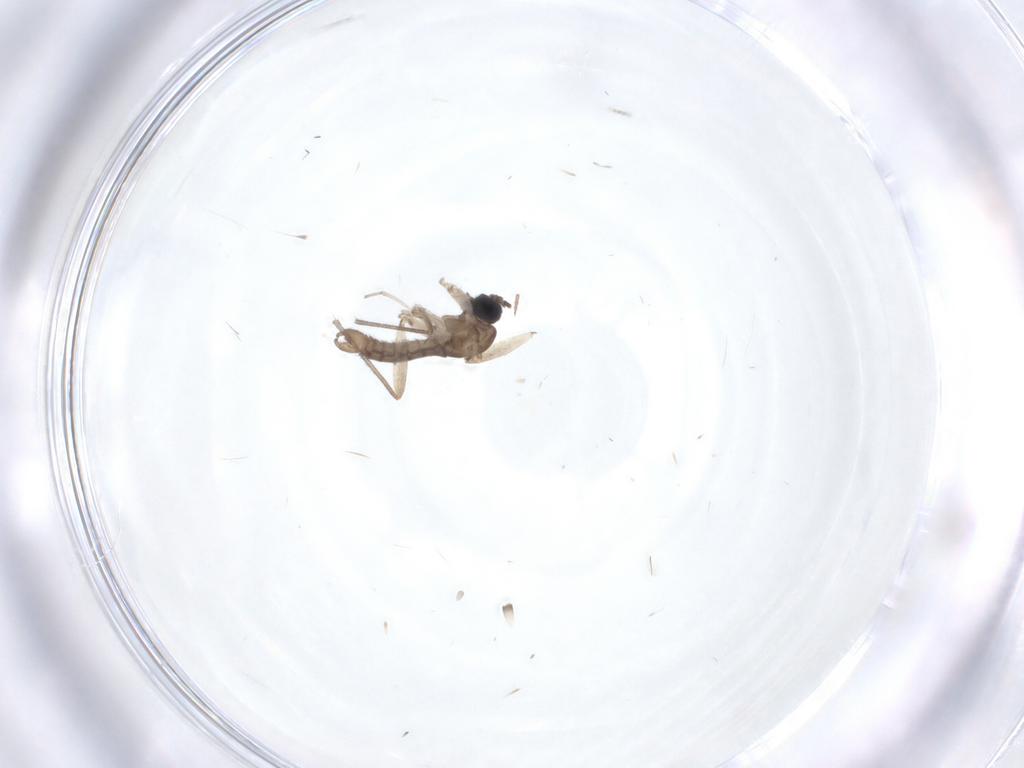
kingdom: Animalia
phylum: Arthropoda
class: Insecta
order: Diptera
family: Sciaridae
